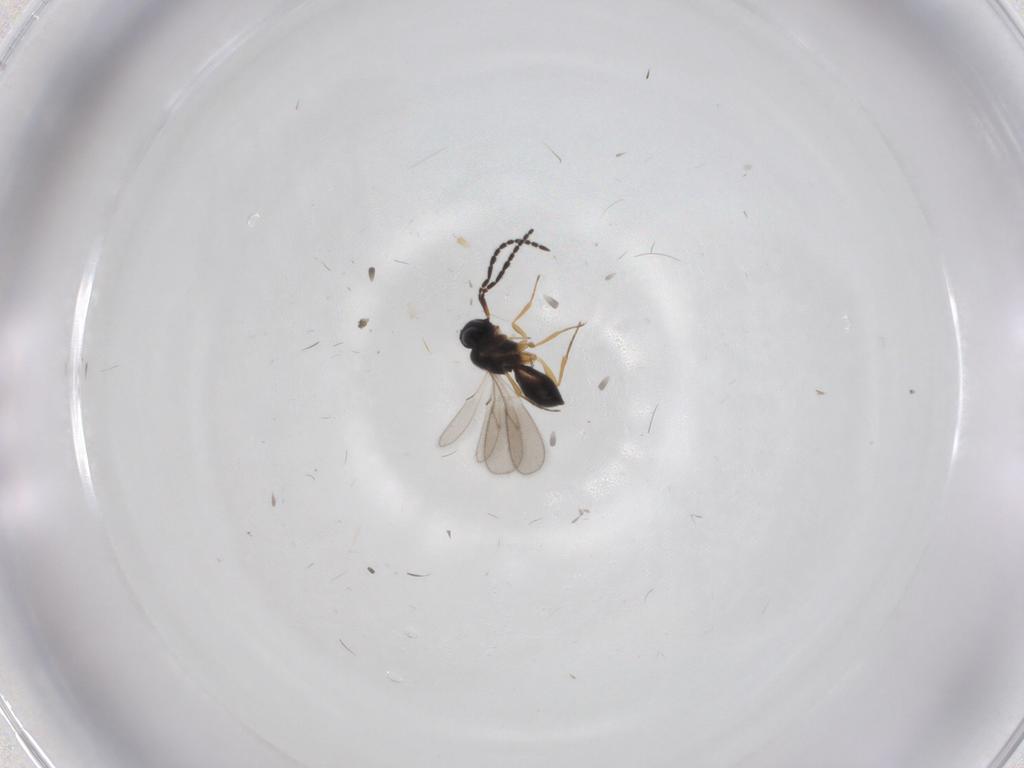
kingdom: Animalia
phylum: Arthropoda
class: Insecta
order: Hymenoptera
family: Scelionidae
